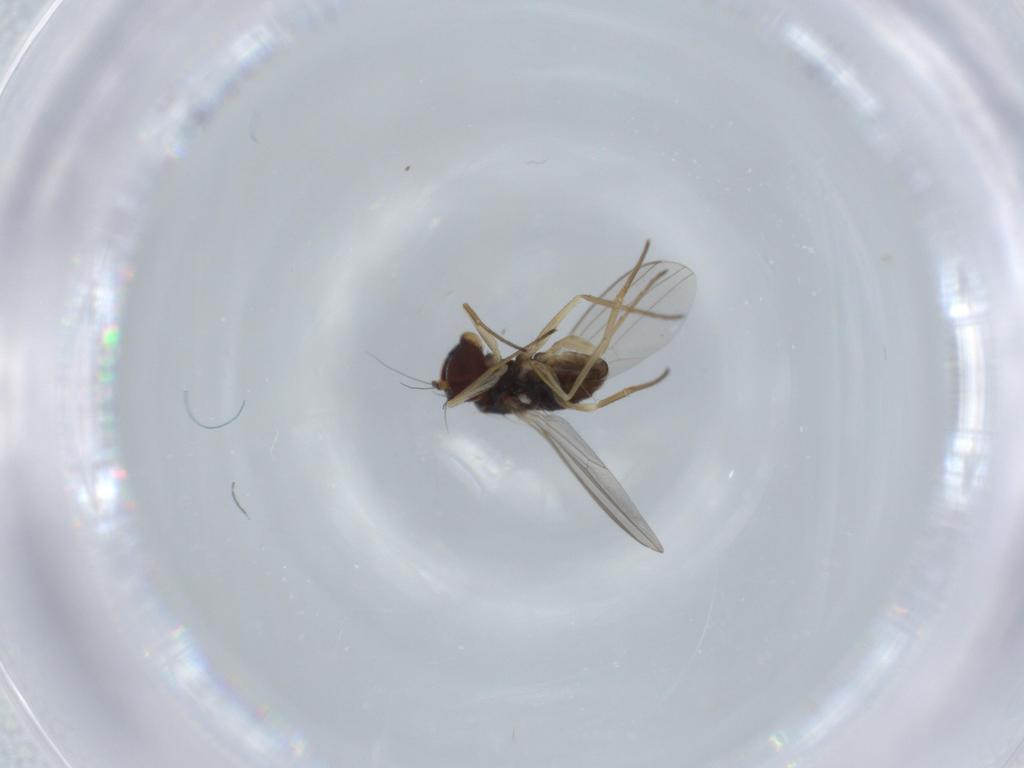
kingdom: Animalia
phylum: Arthropoda
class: Insecta
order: Diptera
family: Dolichopodidae
